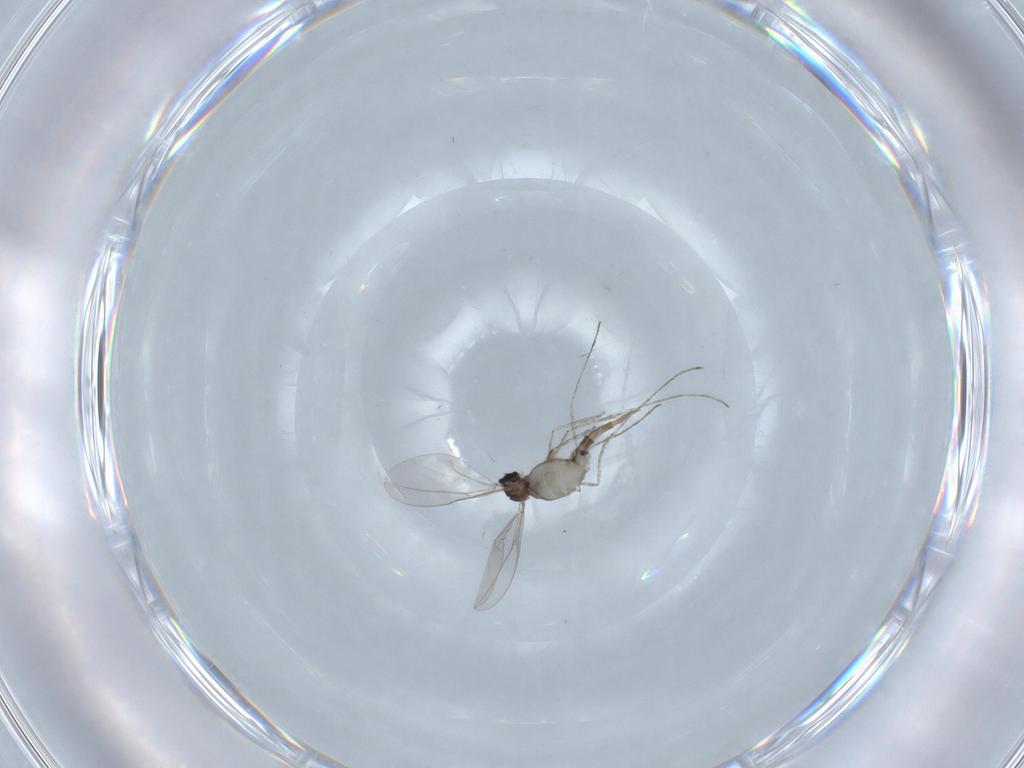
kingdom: Animalia
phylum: Arthropoda
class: Insecta
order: Diptera
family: Cecidomyiidae
